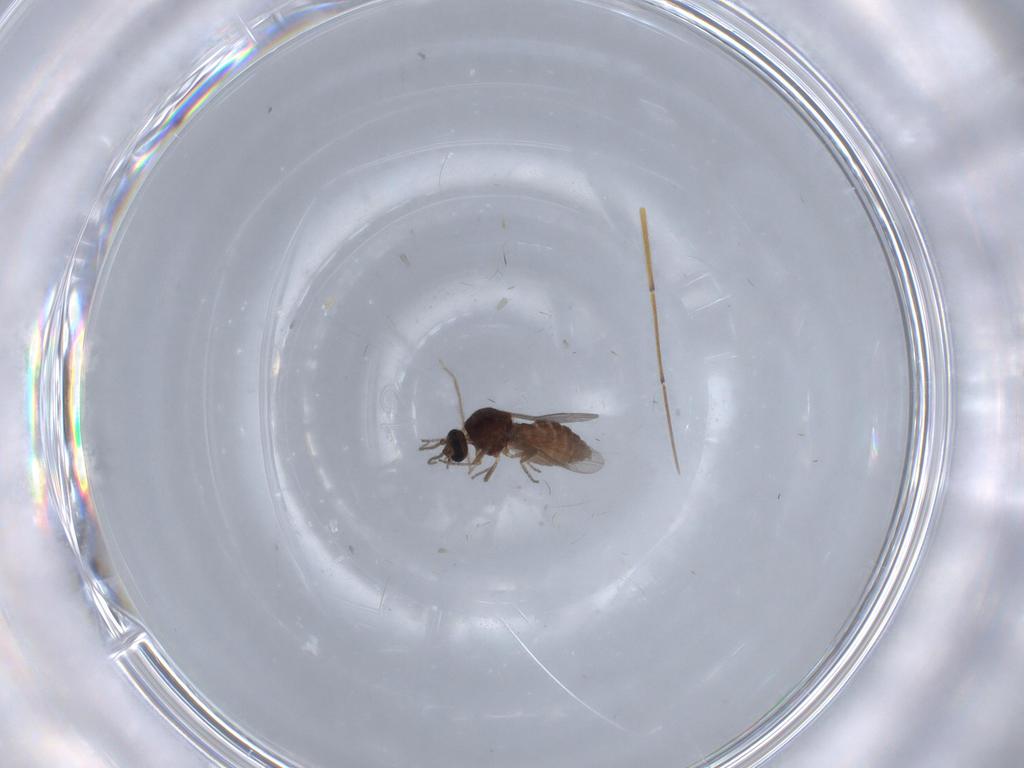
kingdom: Animalia
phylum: Arthropoda
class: Insecta
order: Diptera
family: Ceratopogonidae
